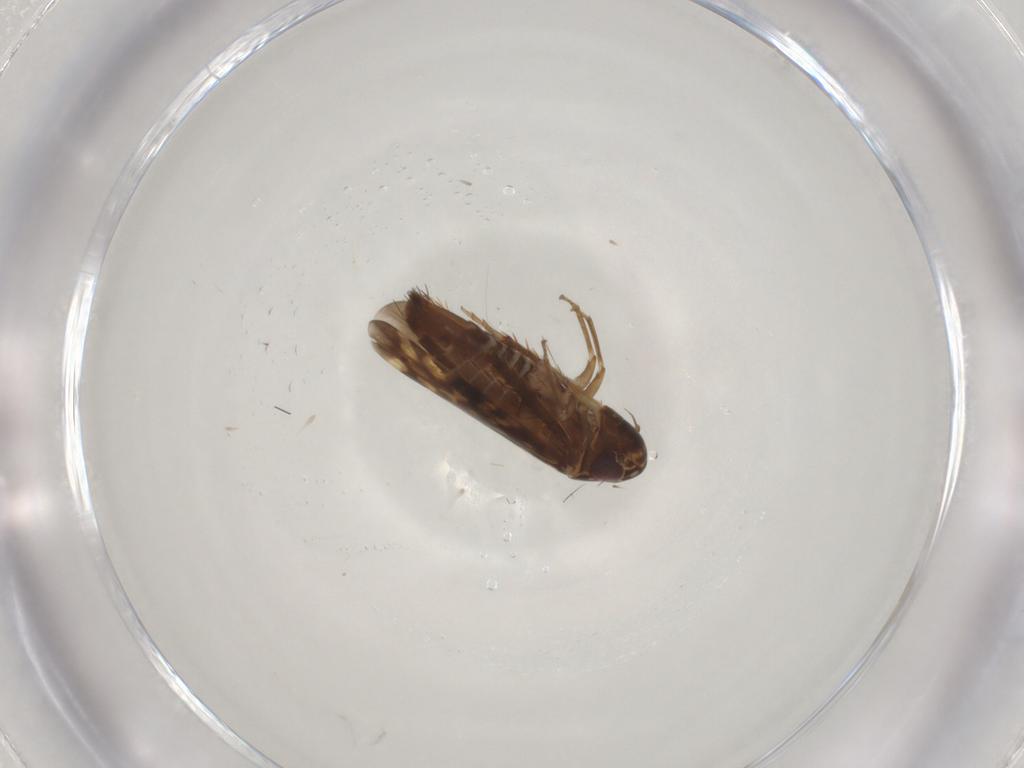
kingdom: Animalia
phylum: Arthropoda
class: Insecta
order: Hemiptera
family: Cicadellidae
